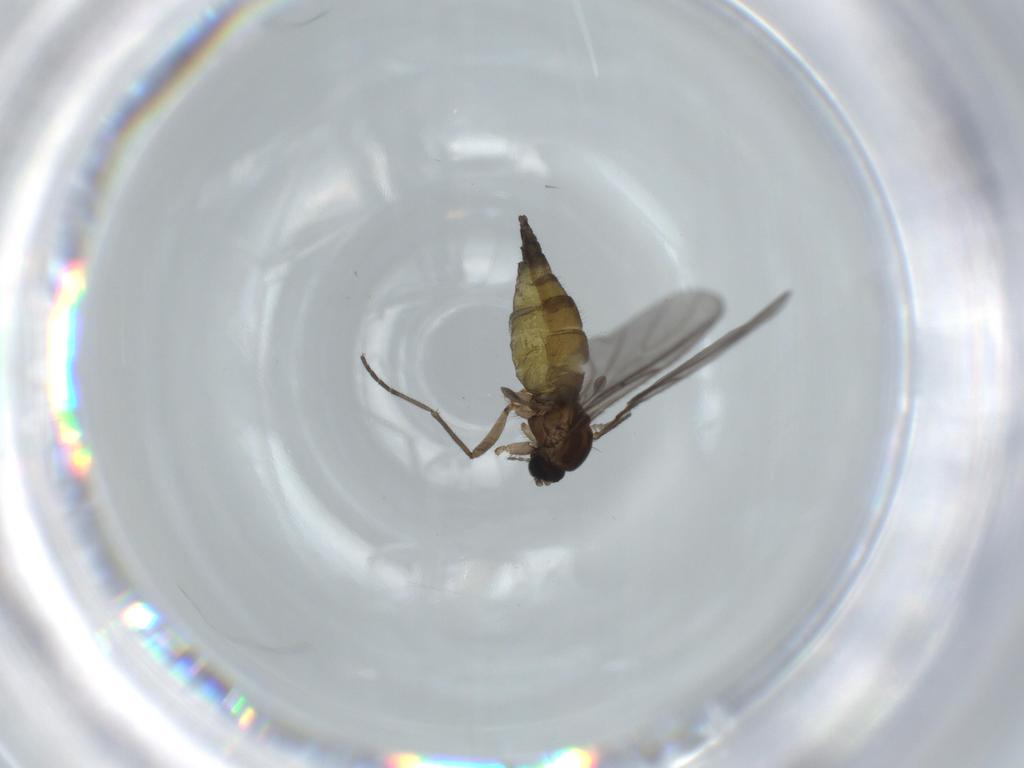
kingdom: Animalia
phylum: Arthropoda
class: Insecta
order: Diptera
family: Sciaridae
